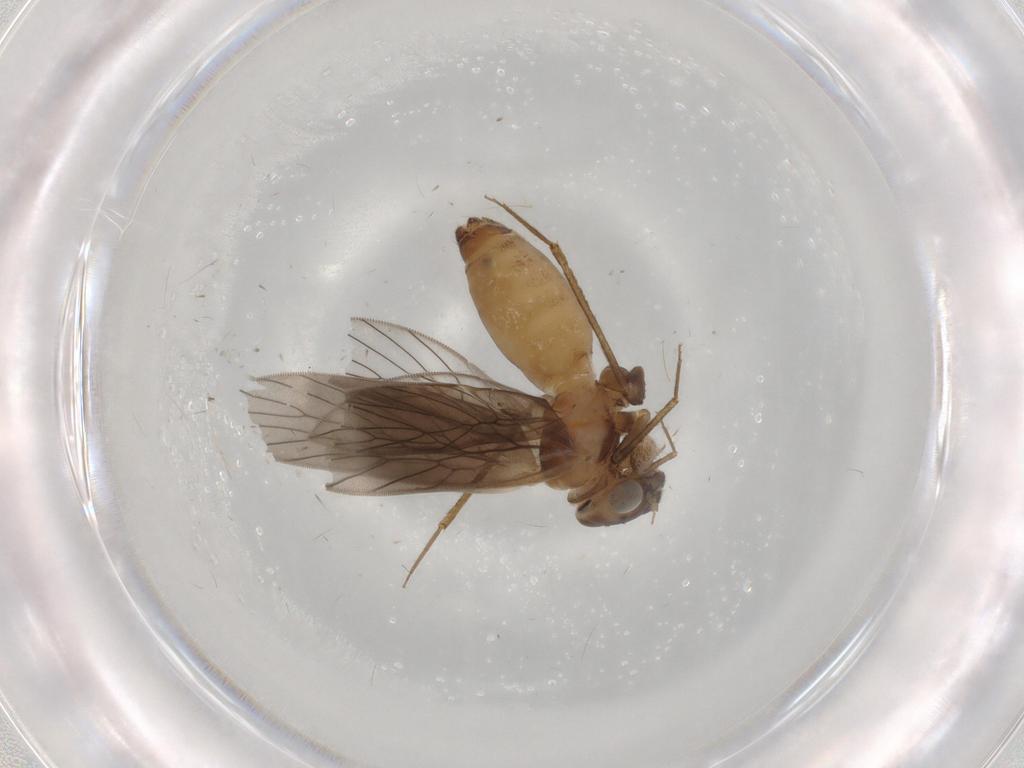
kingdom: Animalia
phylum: Arthropoda
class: Insecta
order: Psocodea
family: Lepidopsocidae
